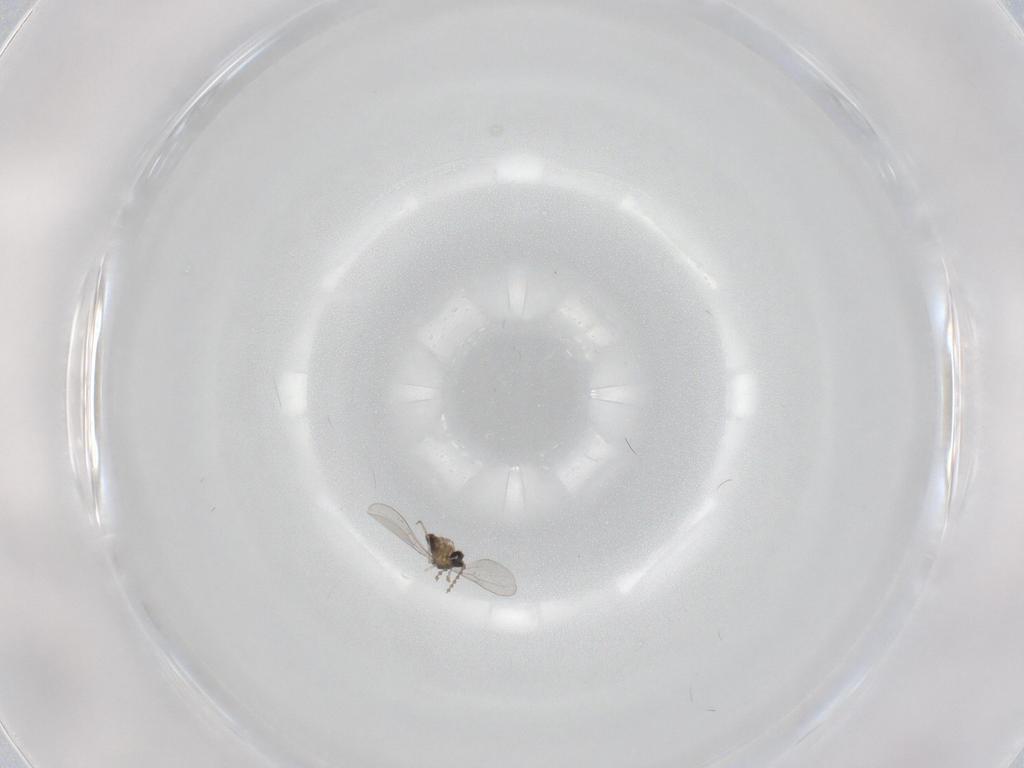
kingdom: Animalia
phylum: Arthropoda
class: Insecta
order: Diptera
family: Cecidomyiidae
